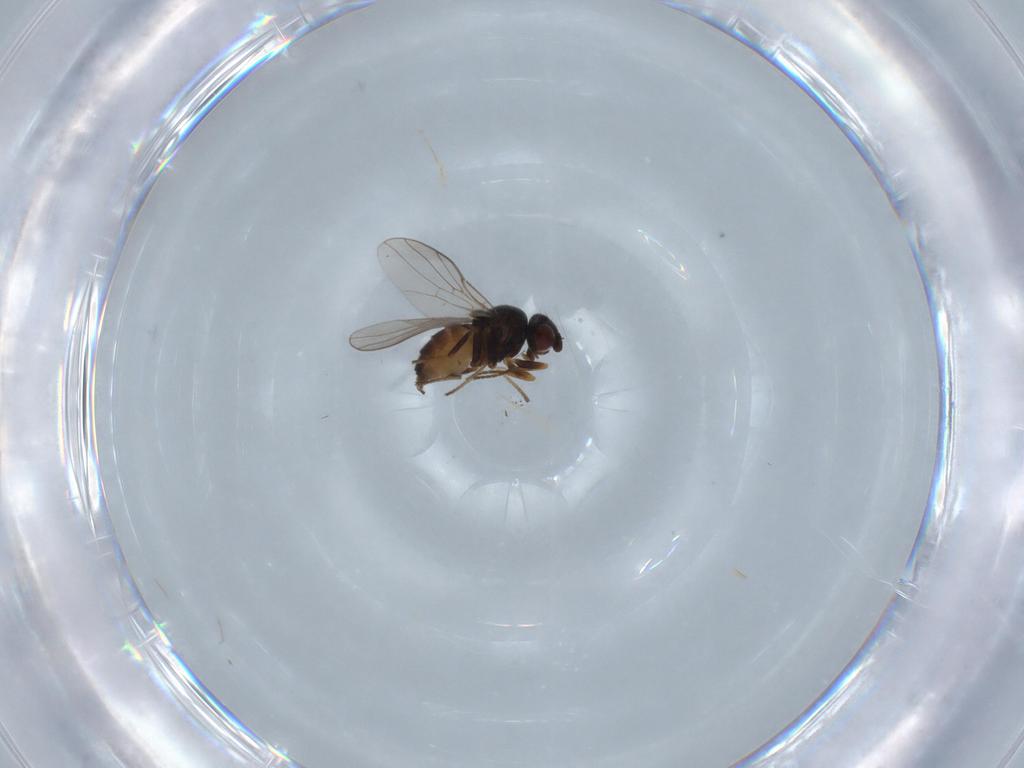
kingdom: Animalia
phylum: Arthropoda
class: Insecta
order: Diptera
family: Chloropidae
